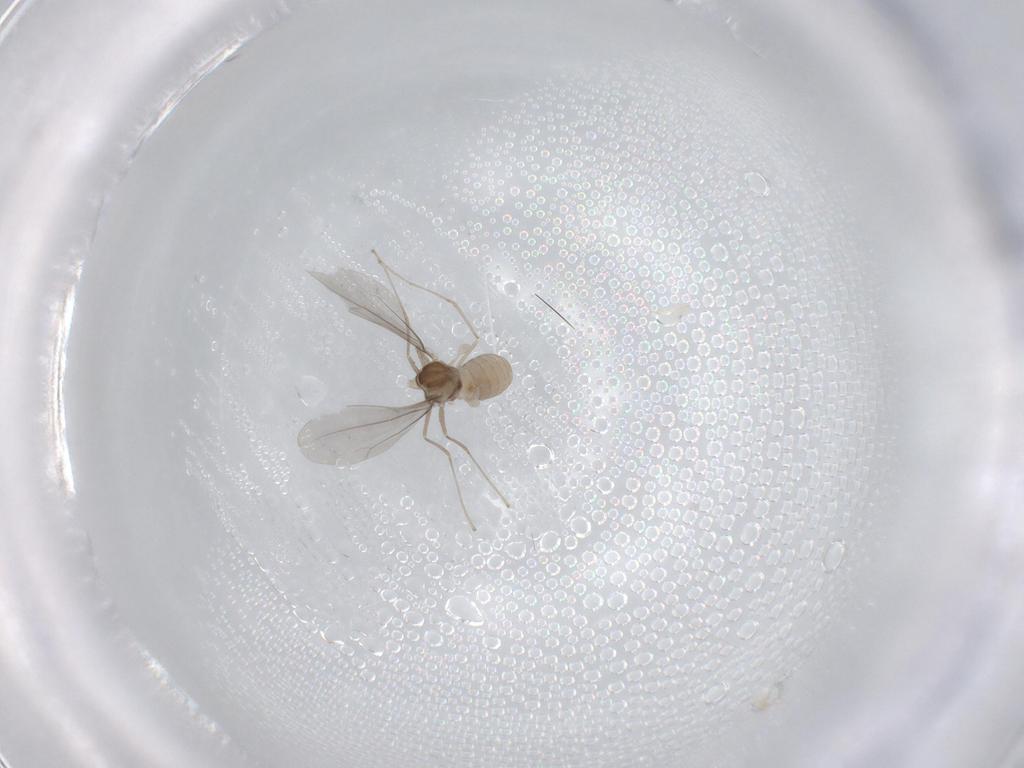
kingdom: Animalia
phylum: Arthropoda
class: Insecta
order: Diptera
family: Cecidomyiidae
